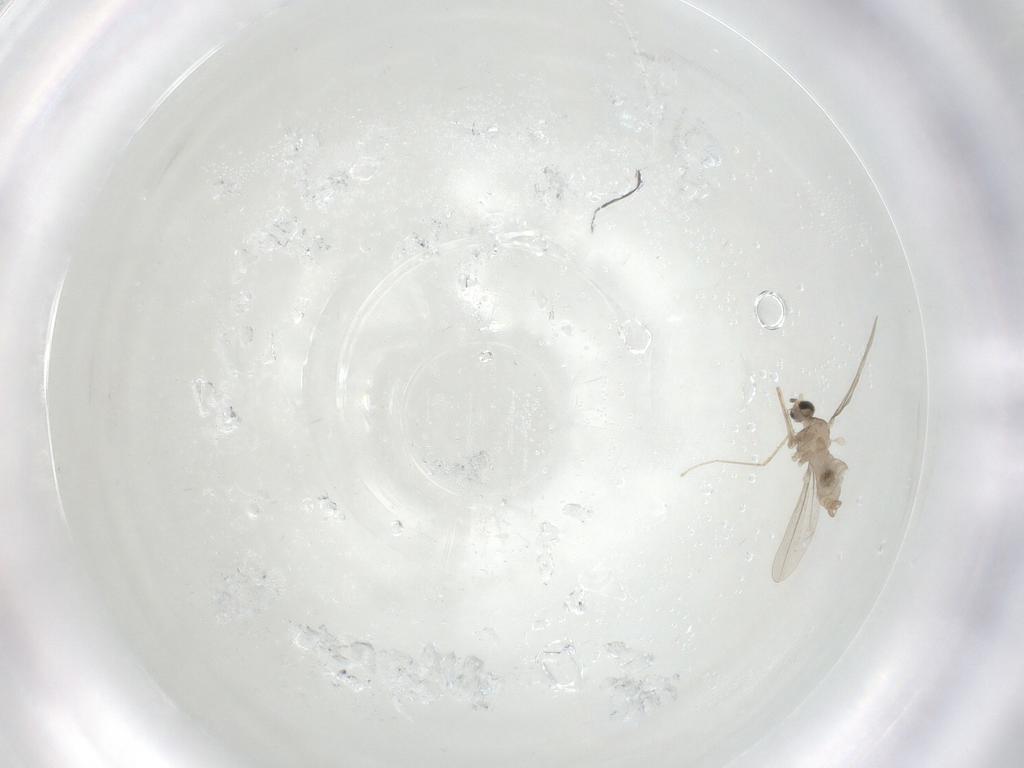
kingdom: Animalia
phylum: Arthropoda
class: Insecta
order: Diptera
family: Cecidomyiidae
